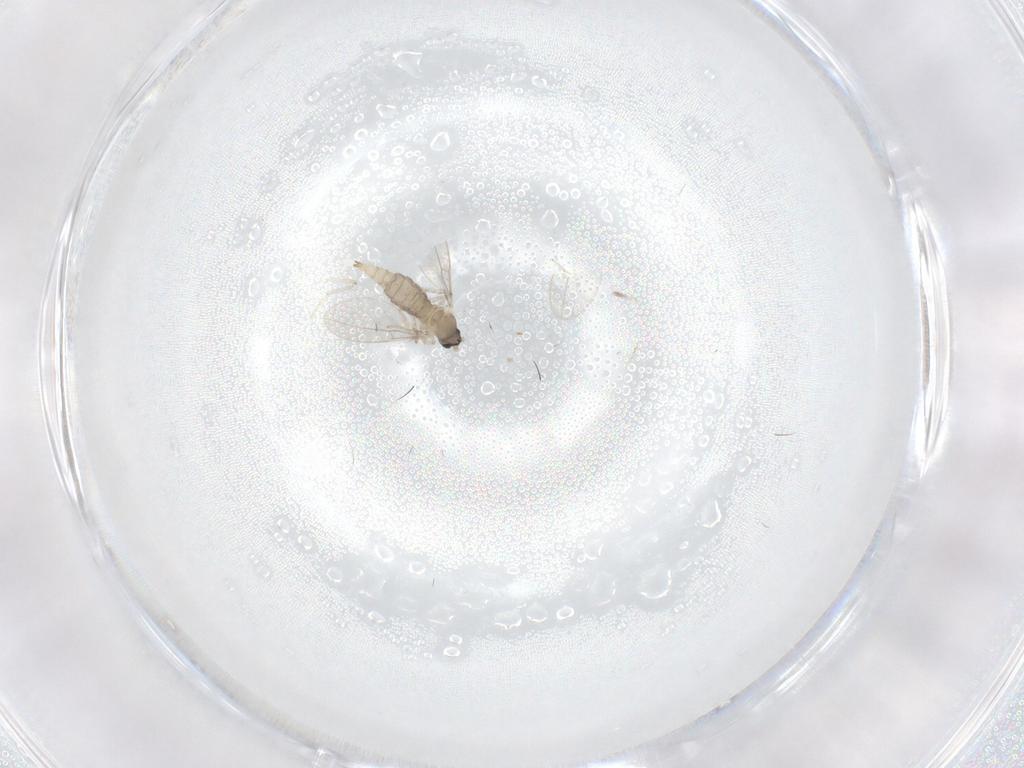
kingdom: Animalia
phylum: Arthropoda
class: Insecta
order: Diptera
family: Cecidomyiidae
